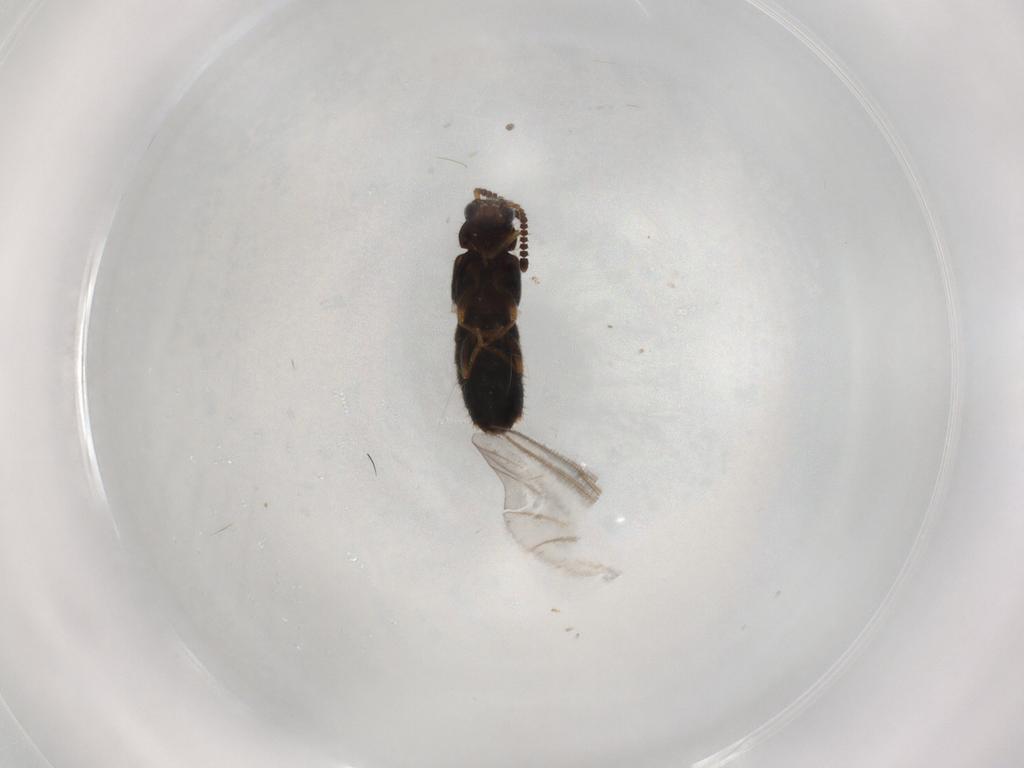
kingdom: Animalia
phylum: Arthropoda
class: Insecta
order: Coleoptera
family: Staphylinidae
